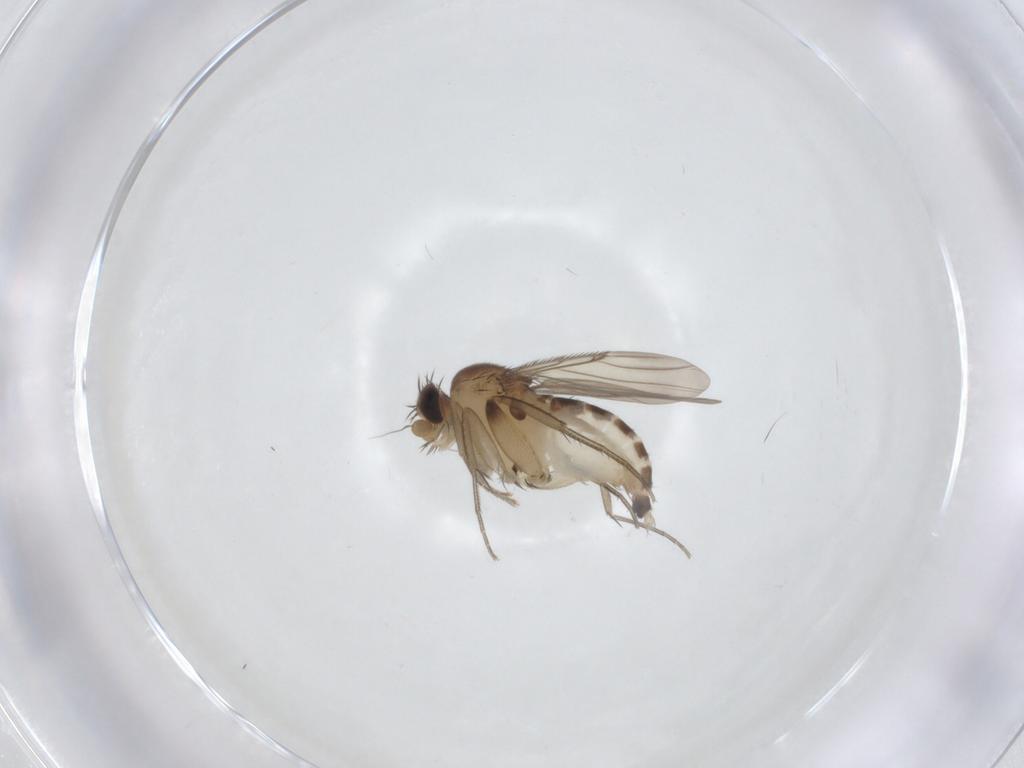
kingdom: Animalia
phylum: Arthropoda
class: Insecta
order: Diptera
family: Phoridae
